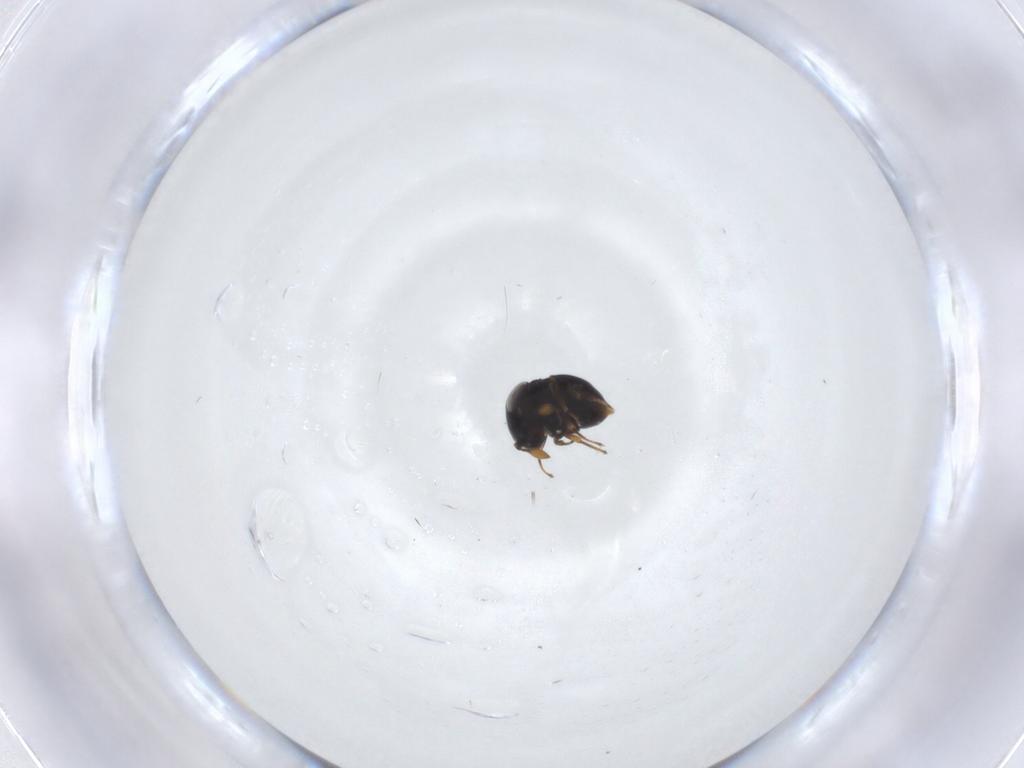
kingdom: Animalia
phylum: Arthropoda
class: Insecta
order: Hymenoptera
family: Scelionidae
